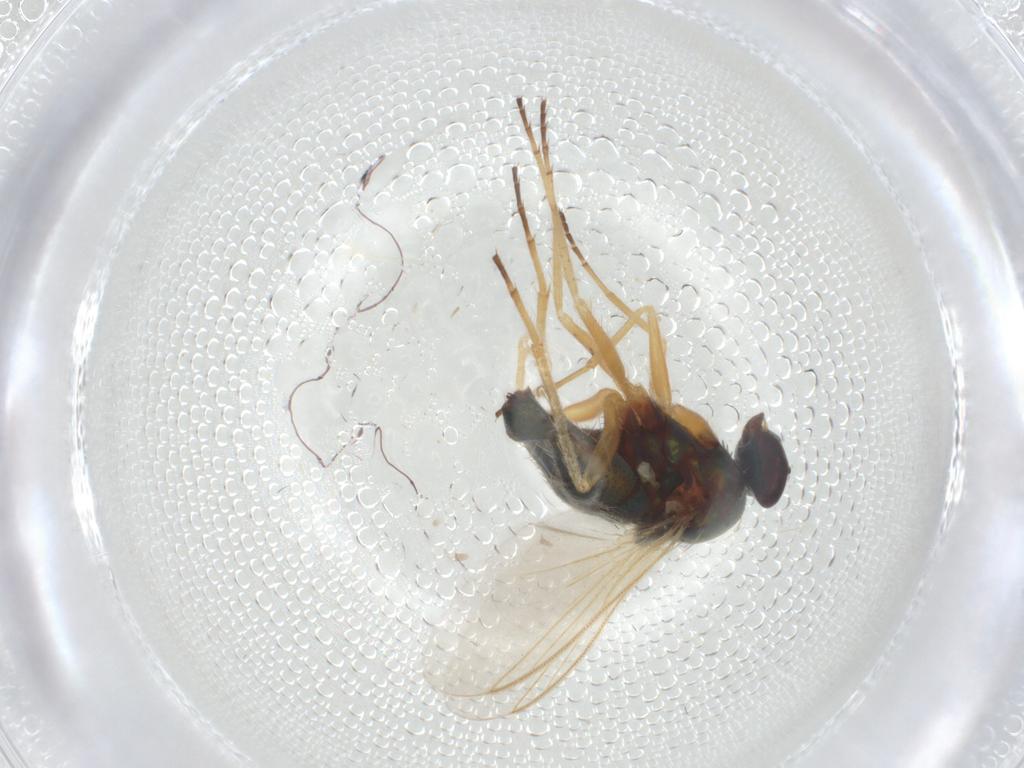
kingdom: Animalia
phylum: Arthropoda
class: Insecta
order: Diptera
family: Dolichopodidae
